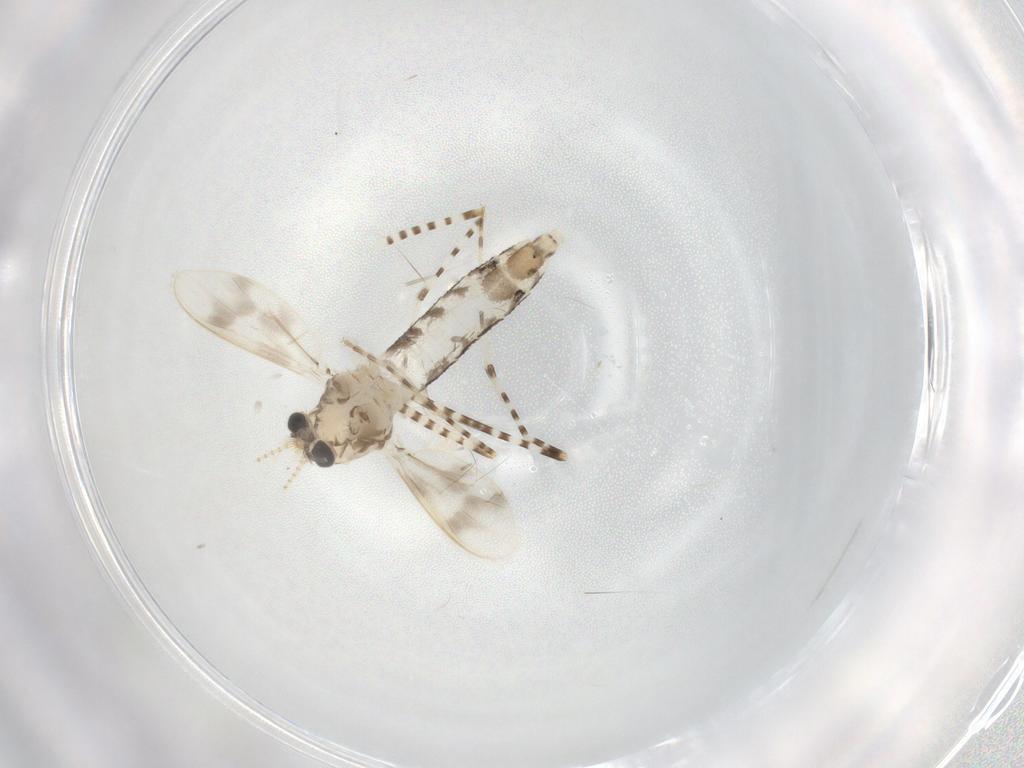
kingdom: Animalia
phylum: Arthropoda
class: Insecta
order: Diptera
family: Corethrellidae
